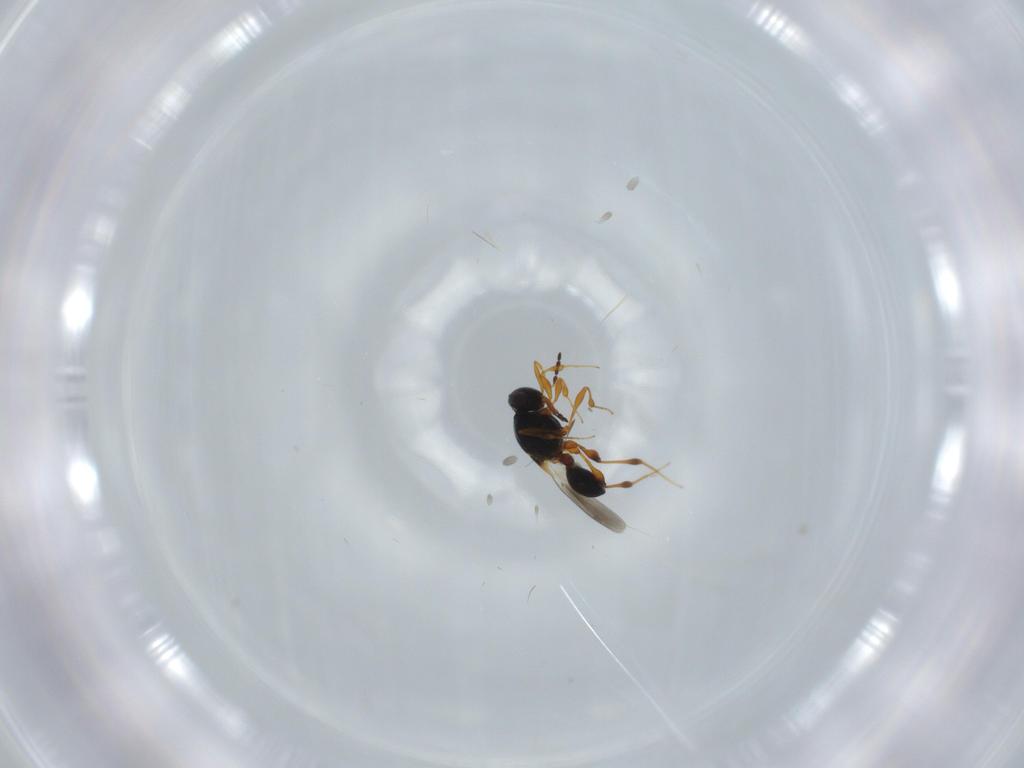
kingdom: Animalia
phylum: Arthropoda
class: Insecta
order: Hymenoptera
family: Platygastridae
